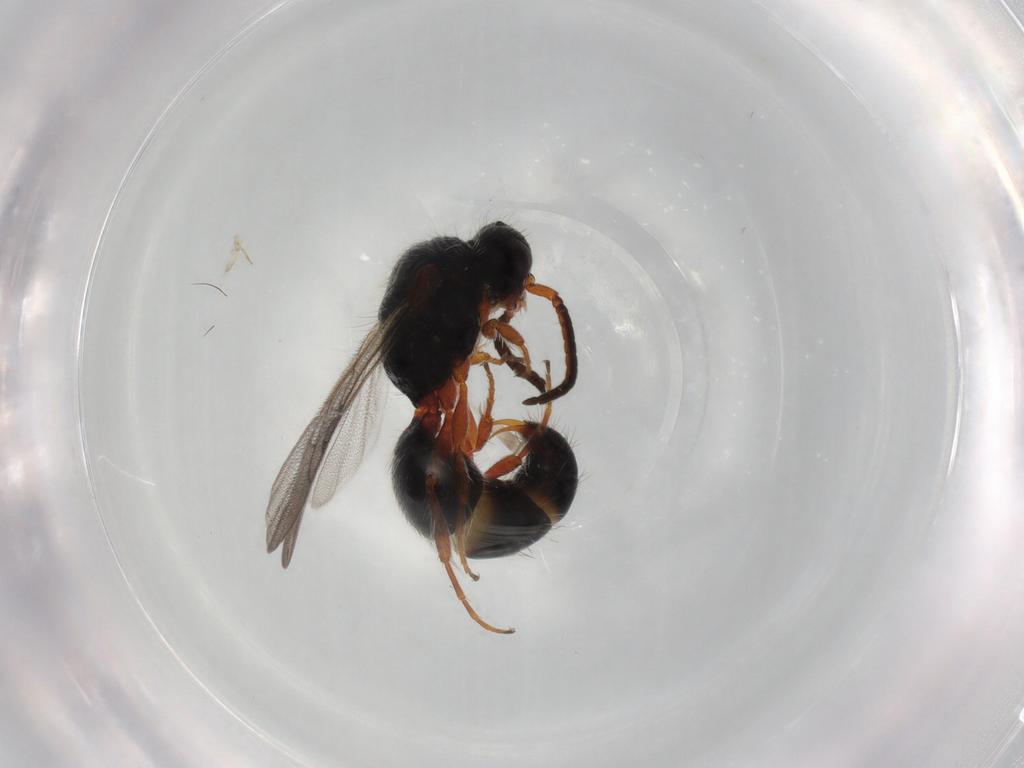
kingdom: Animalia
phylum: Arthropoda
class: Insecta
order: Hymenoptera
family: Mutillidae
